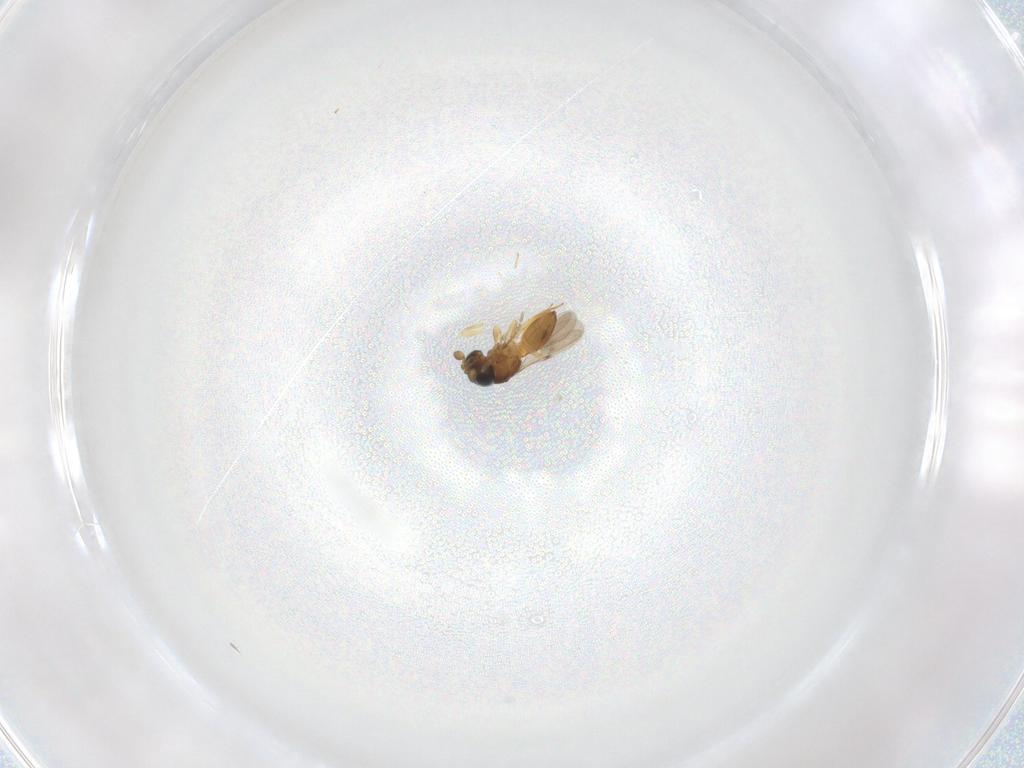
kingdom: Animalia
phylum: Arthropoda
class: Insecta
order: Hymenoptera
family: Scelionidae
